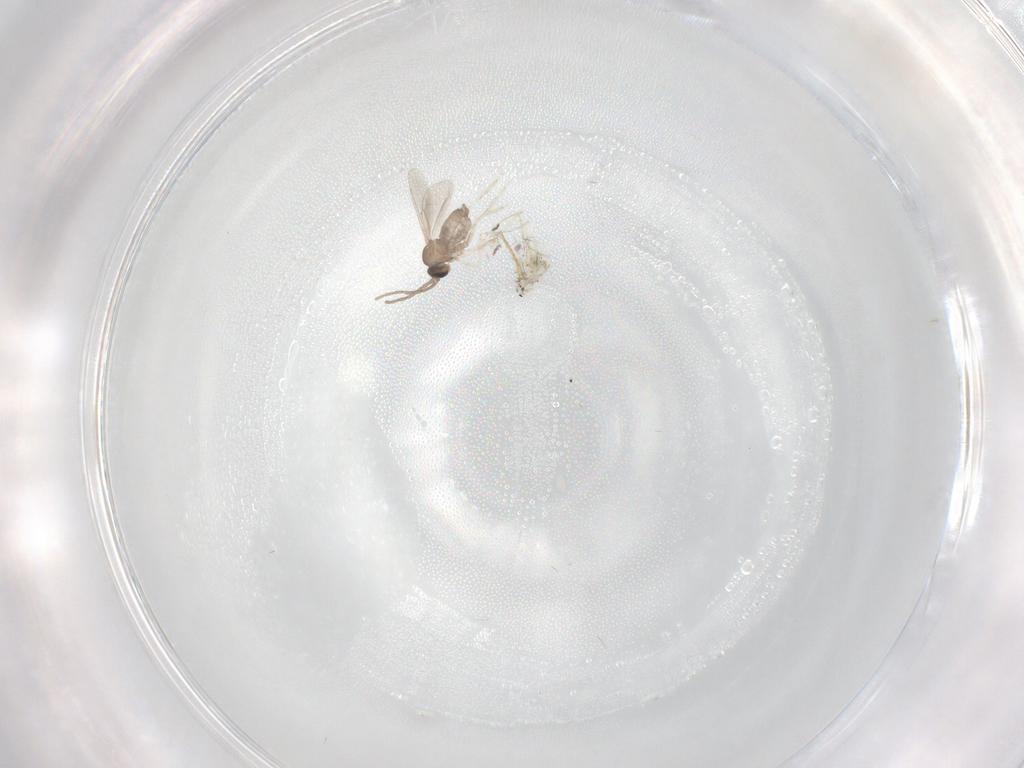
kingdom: Animalia
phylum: Arthropoda
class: Insecta
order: Diptera
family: Cecidomyiidae
